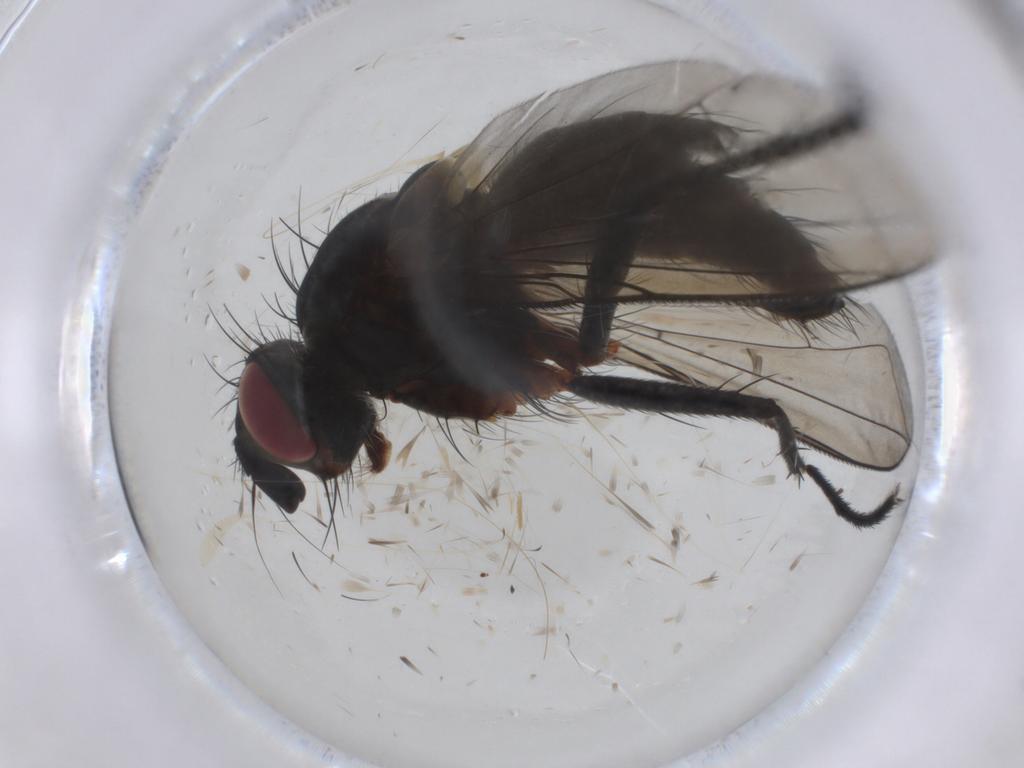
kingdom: Animalia
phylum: Arthropoda
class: Insecta
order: Diptera
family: Tachinidae
